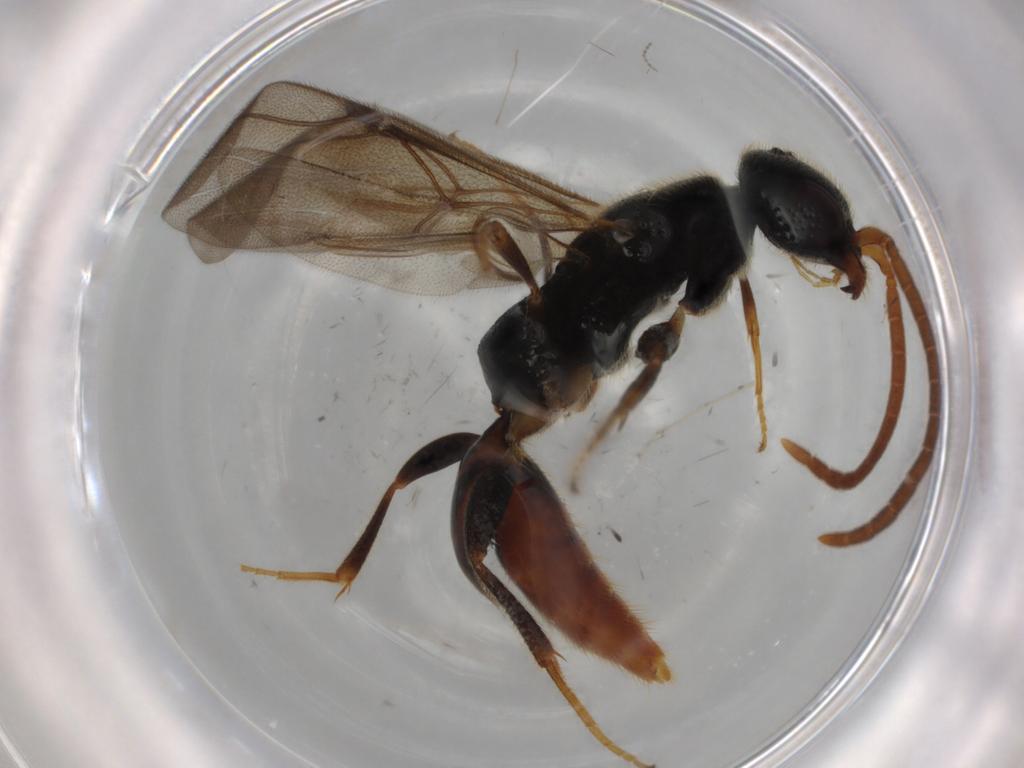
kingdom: Animalia
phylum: Arthropoda
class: Insecta
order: Hymenoptera
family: Bethylidae
